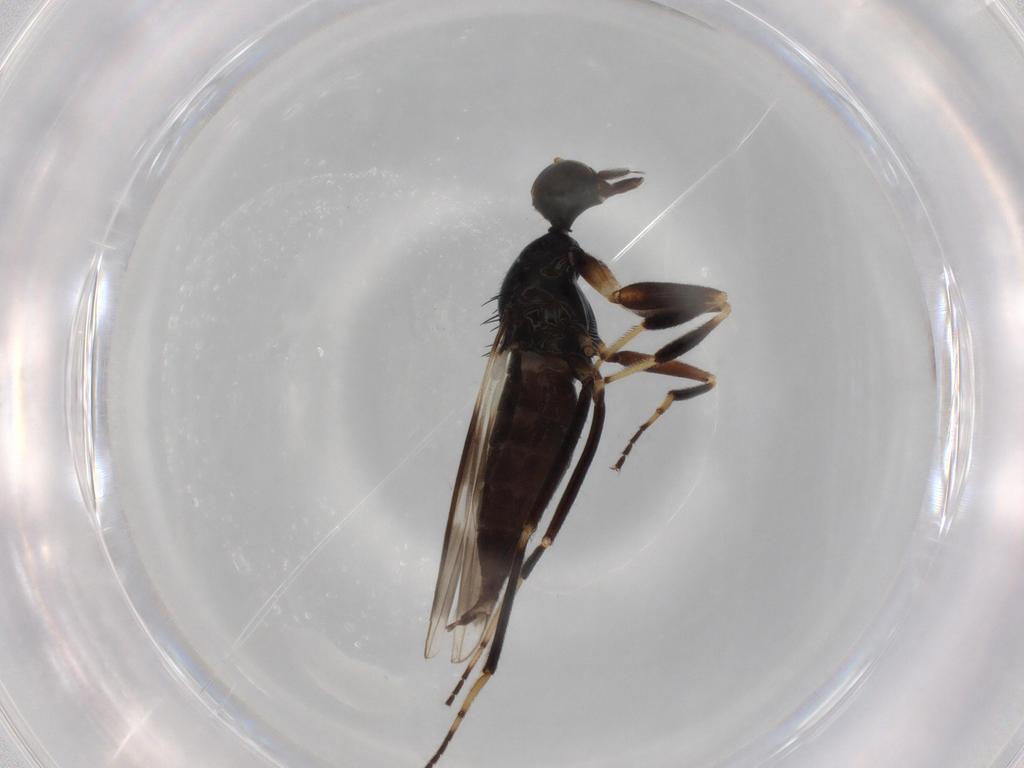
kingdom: Animalia
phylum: Arthropoda
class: Insecta
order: Diptera
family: Hybotidae
